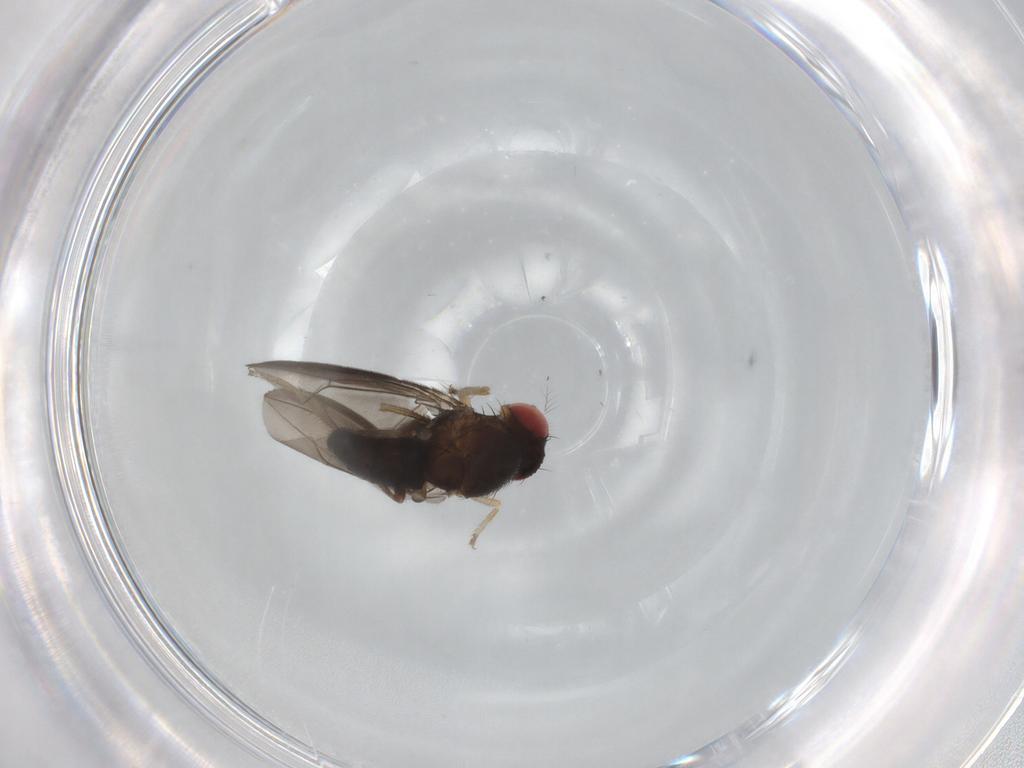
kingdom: Animalia
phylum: Arthropoda
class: Insecta
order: Diptera
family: Drosophilidae
